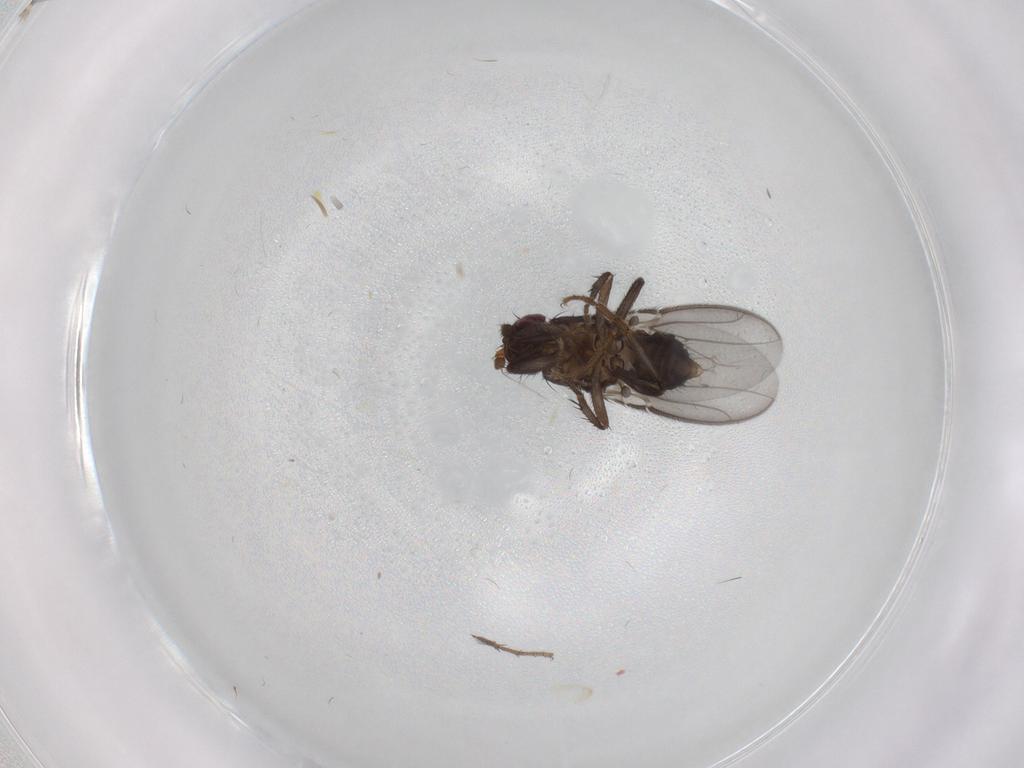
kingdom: Animalia
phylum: Arthropoda
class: Insecta
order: Diptera
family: Sphaeroceridae
